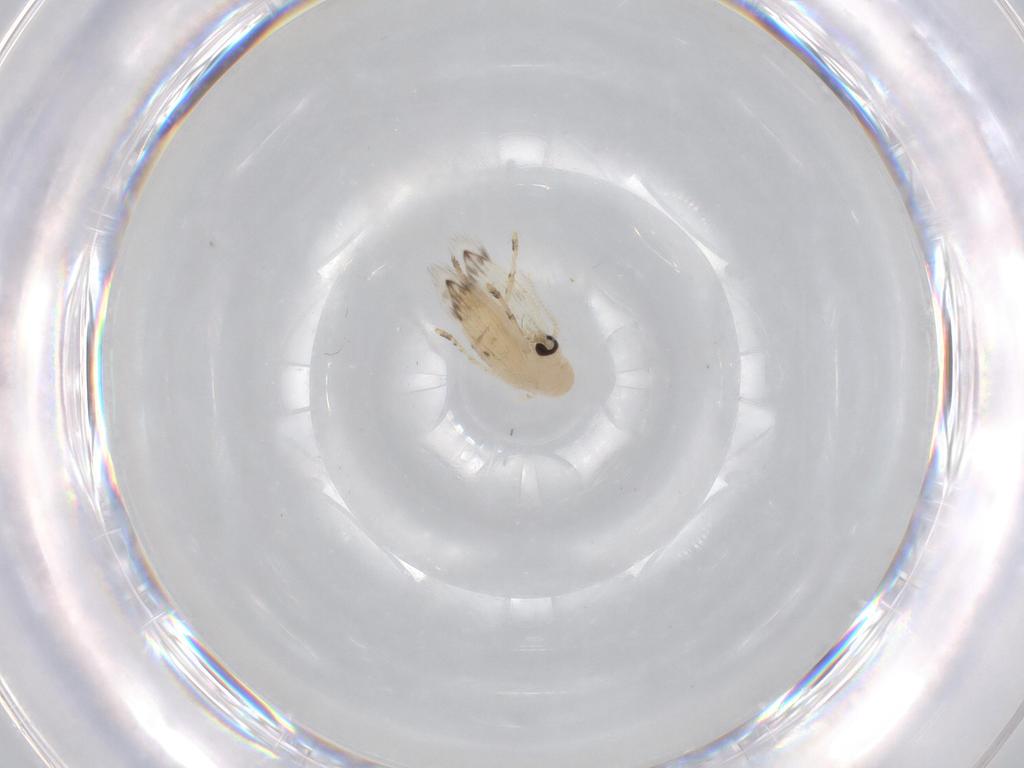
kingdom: Animalia
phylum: Arthropoda
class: Insecta
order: Diptera
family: Psychodidae
